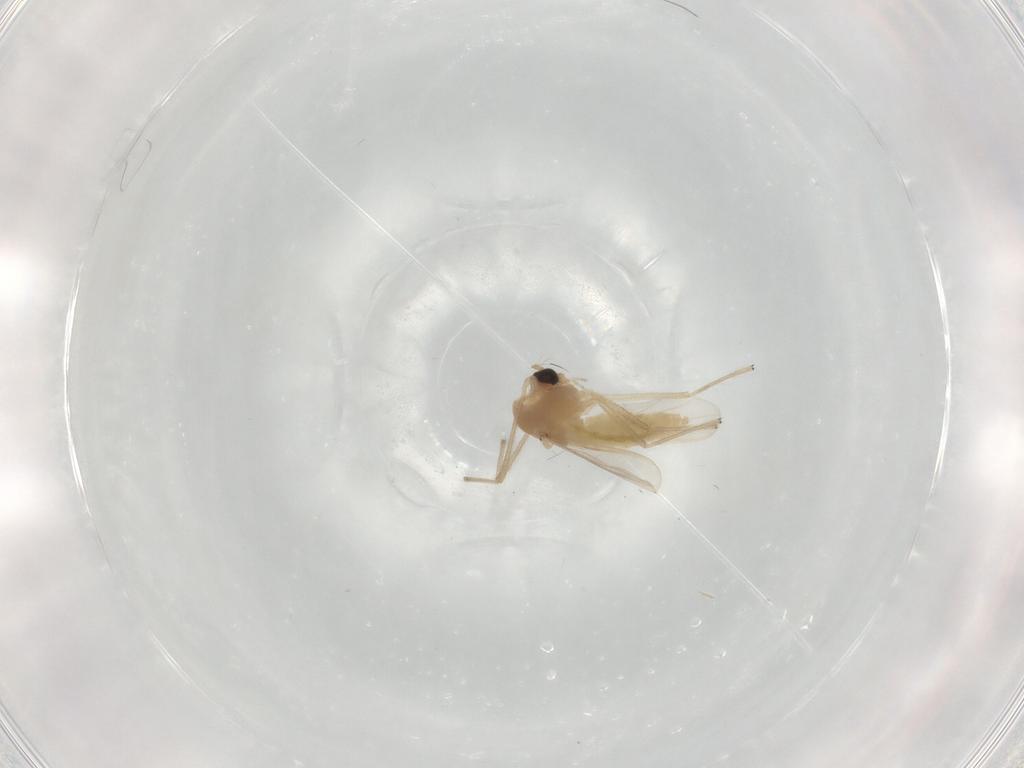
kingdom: Animalia
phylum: Arthropoda
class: Insecta
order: Diptera
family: Chironomidae
